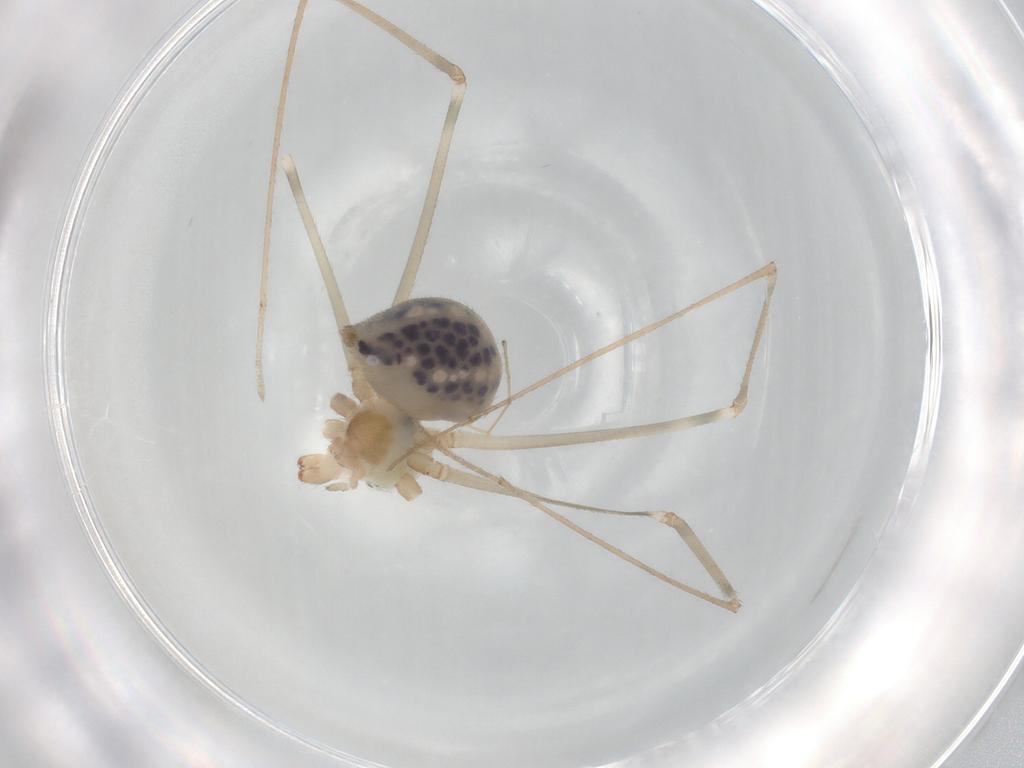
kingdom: Animalia
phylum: Arthropoda
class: Arachnida
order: Araneae
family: Pholcidae
